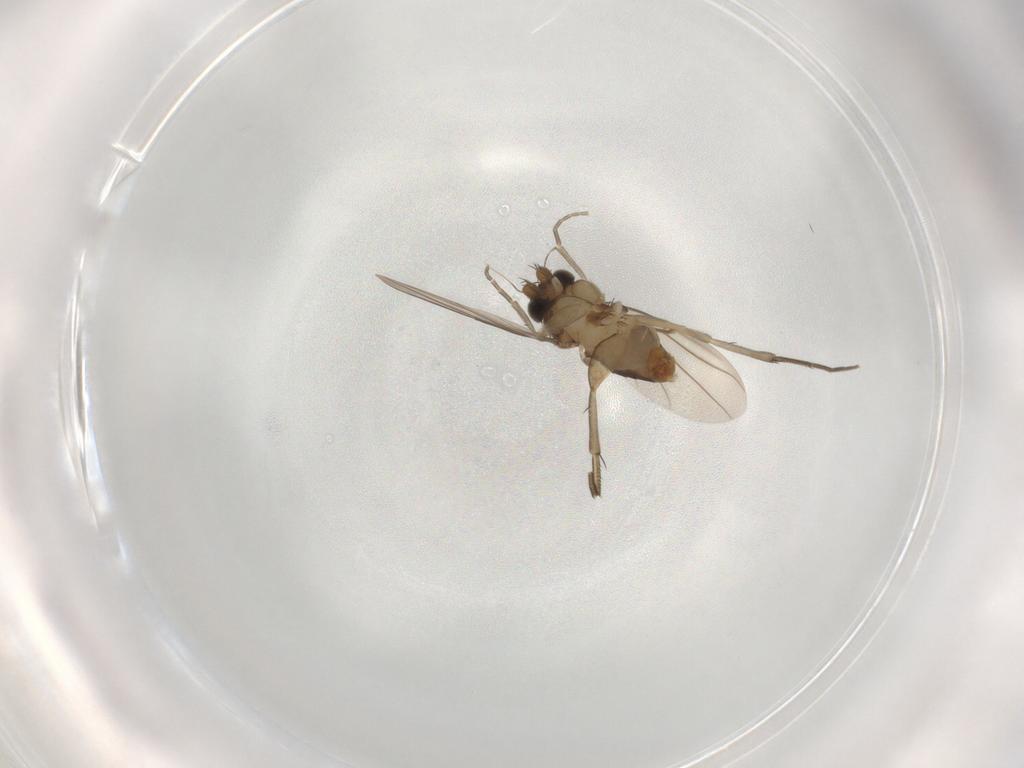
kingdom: Animalia
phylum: Arthropoda
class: Insecta
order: Diptera
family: Phoridae
